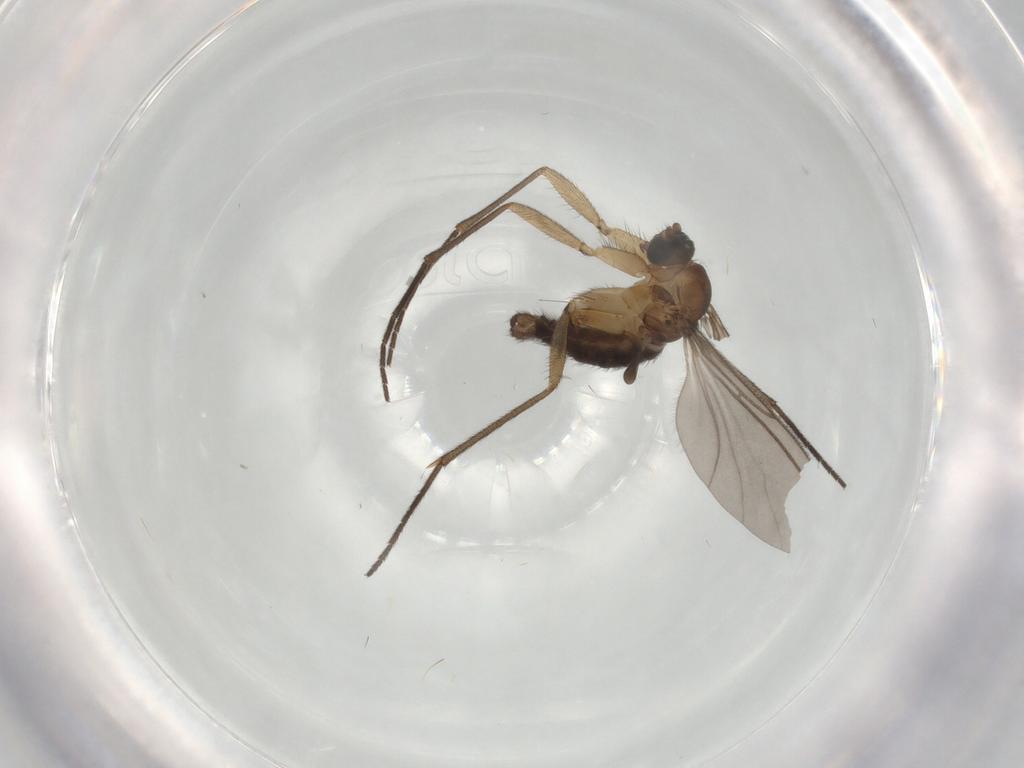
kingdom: Animalia
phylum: Arthropoda
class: Insecta
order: Diptera
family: Sciaridae
